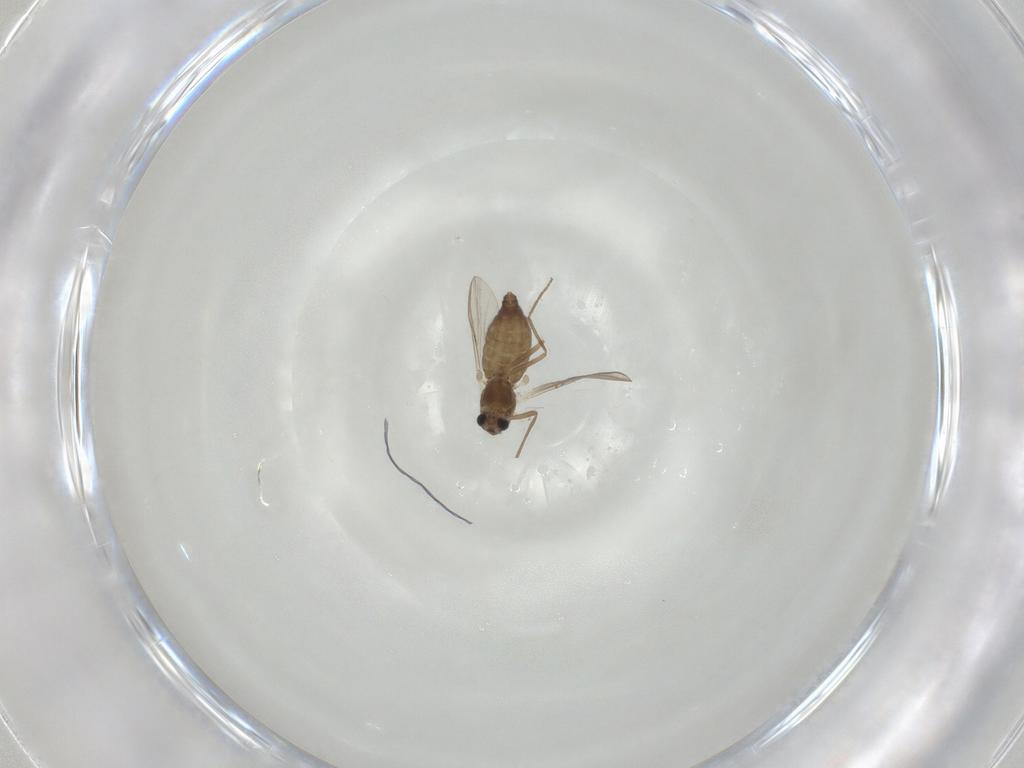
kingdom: Animalia
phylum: Arthropoda
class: Insecta
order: Diptera
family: Chironomidae
